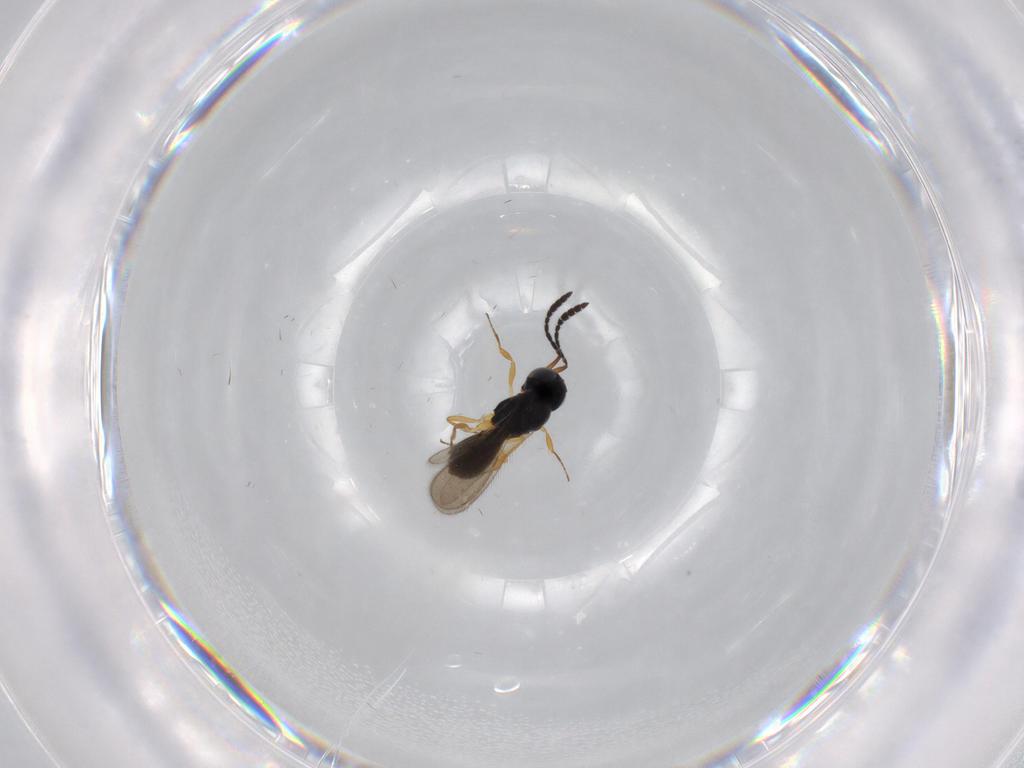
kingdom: Animalia
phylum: Arthropoda
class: Insecta
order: Hymenoptera
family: Scelionidae
